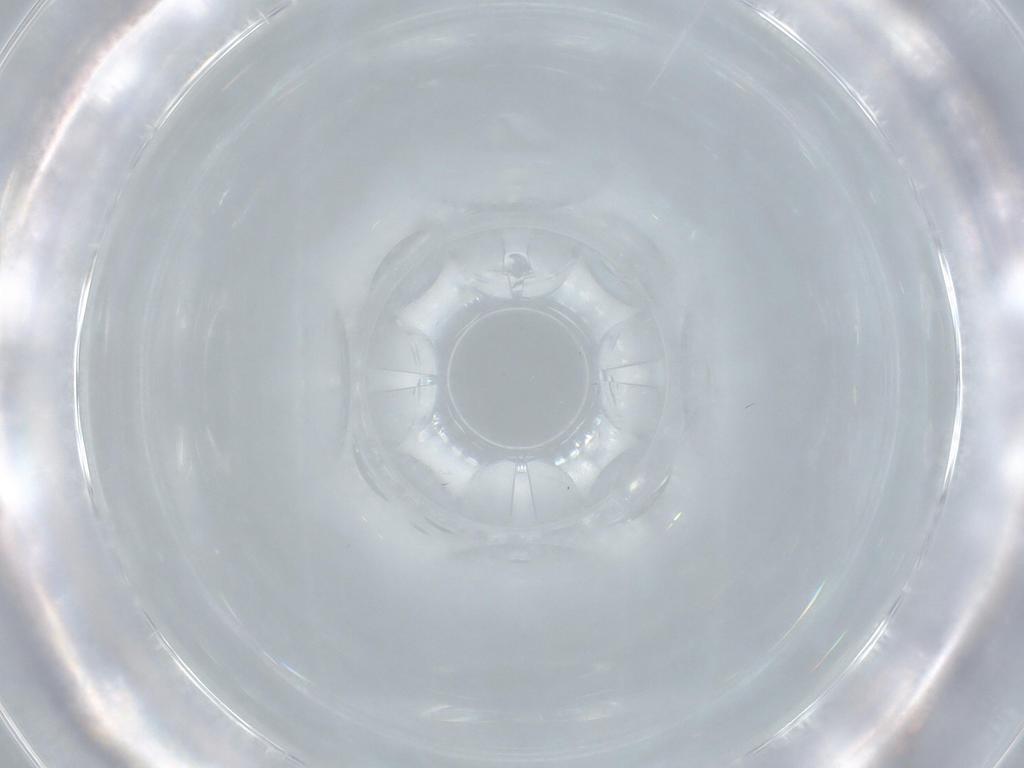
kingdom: Animalia
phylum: Arthropoda
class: Insecta
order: Diptera
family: Cecidomyiidae
